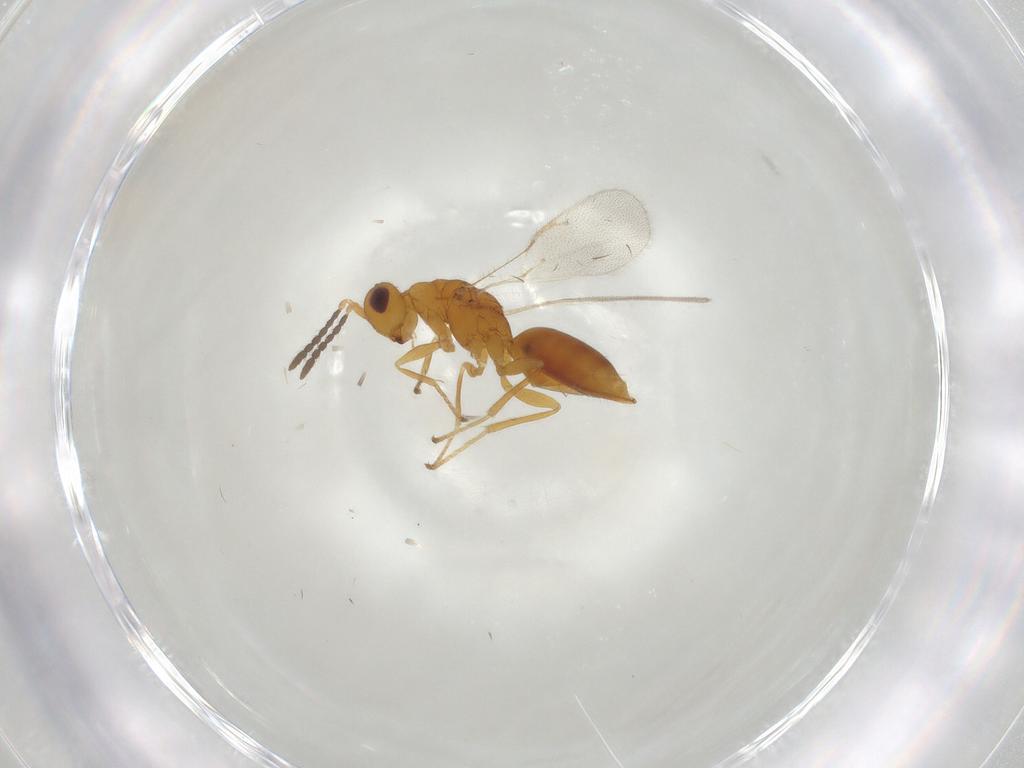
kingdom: Animalia
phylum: Arthropoda
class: Insecta
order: Hymenoptera
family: Eurytomidae
